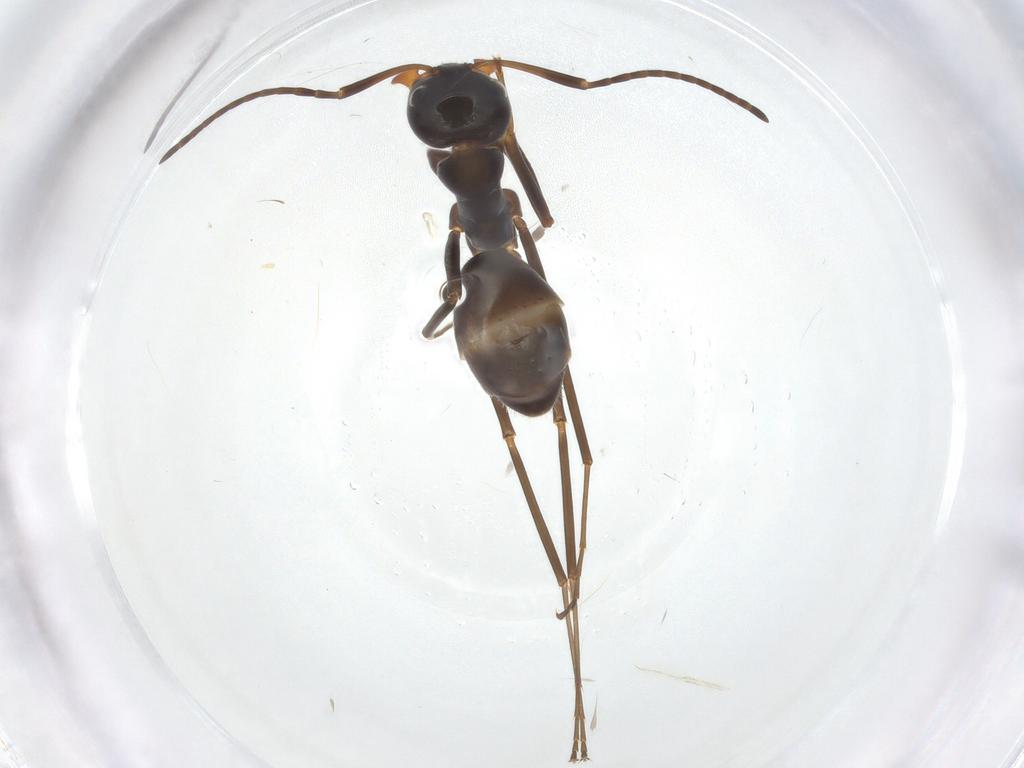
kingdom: Animalia
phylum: Arthropoda
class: Insecta
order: Hymenoptera
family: Formicidae
